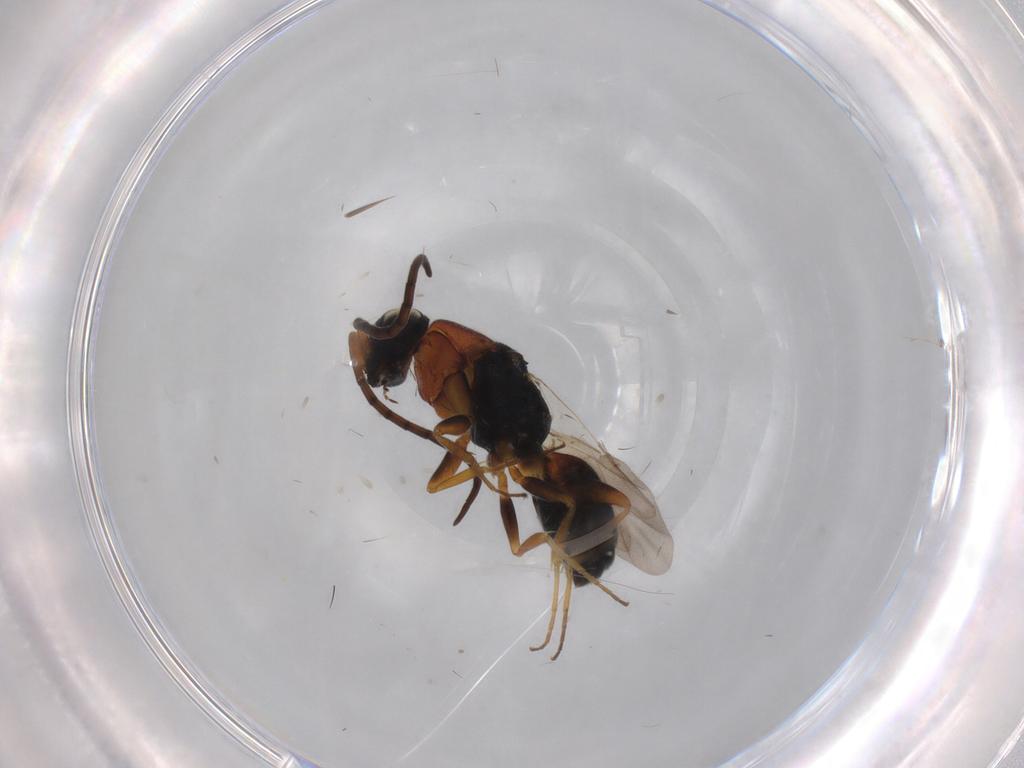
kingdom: Animalia
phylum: Arthropoda
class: Insecta
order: Hymenoptera
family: Chrysididae
